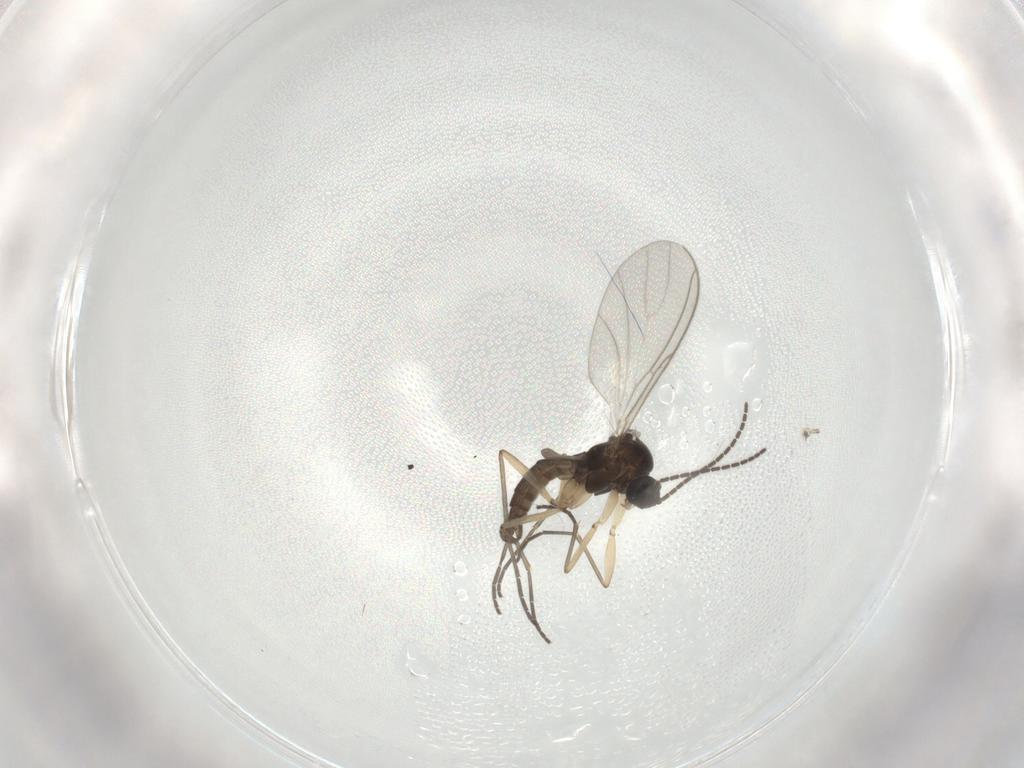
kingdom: Animalia
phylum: Arthropoda
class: Insecta
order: Diptera
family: Sciaridae
